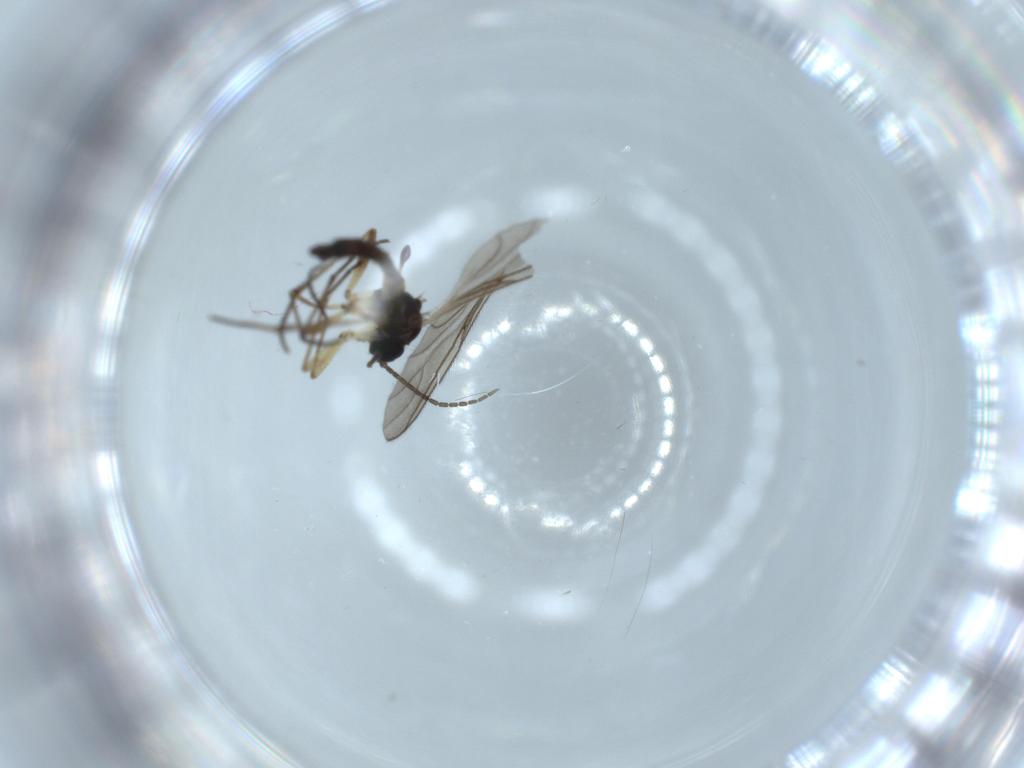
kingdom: Animalia
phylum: Arthropoda
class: Insecta
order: Diptera
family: Sciaridae
